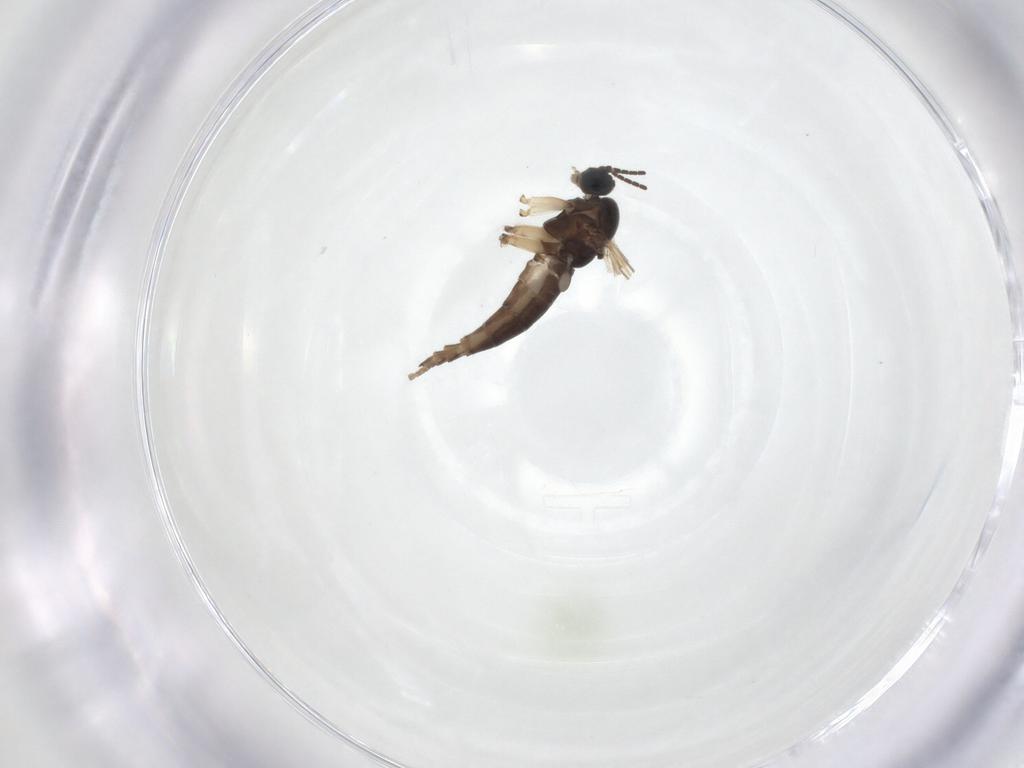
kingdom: Animalia
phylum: Arthropoda
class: Insecta
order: Diptera
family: Sciaridae
